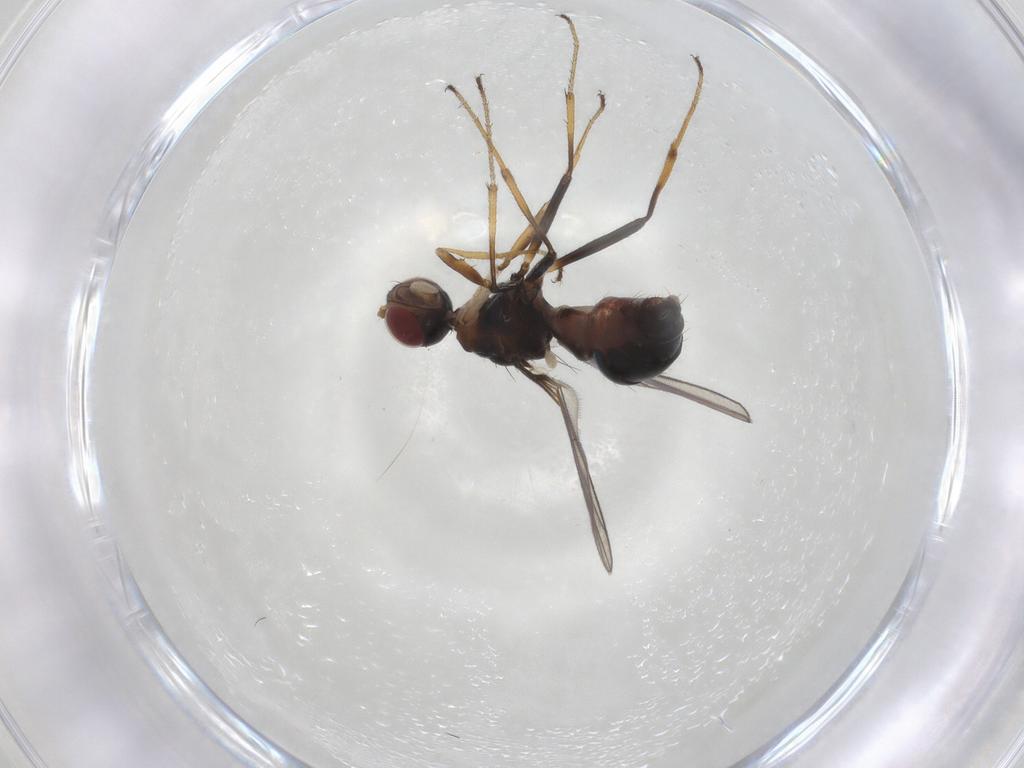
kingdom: Animalia
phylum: Arthropoda
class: Insecta
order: Diptera
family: Sepsidae
